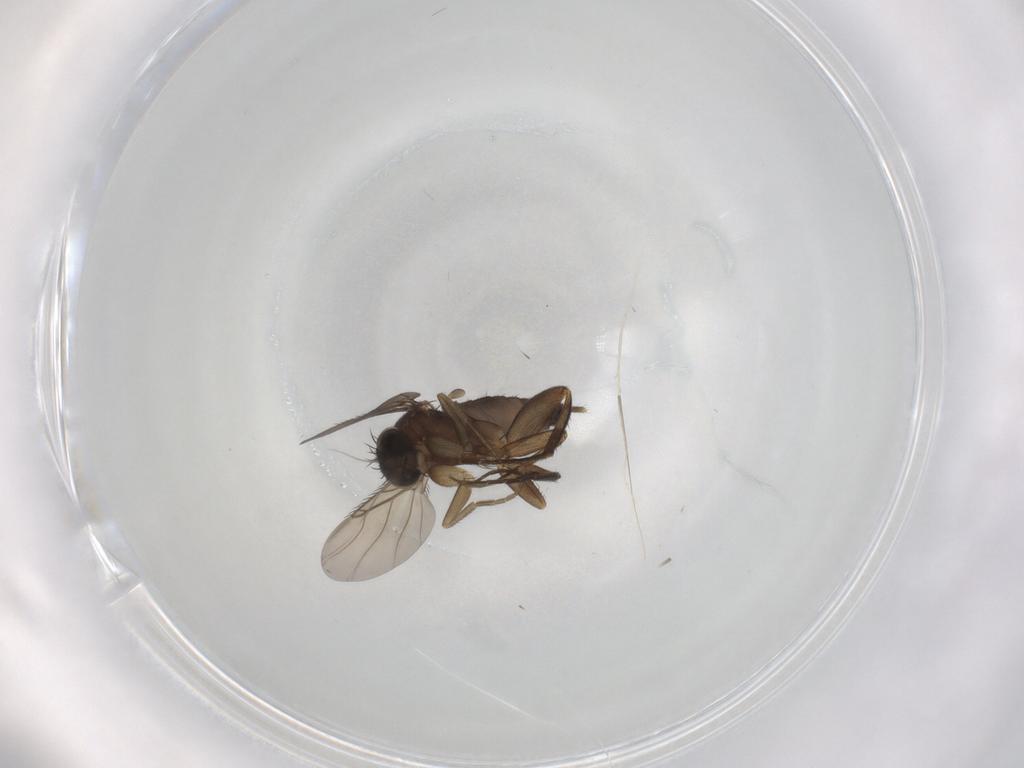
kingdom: Animalia
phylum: Arthropoda
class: Insecta
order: Diptera
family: Phoridae
